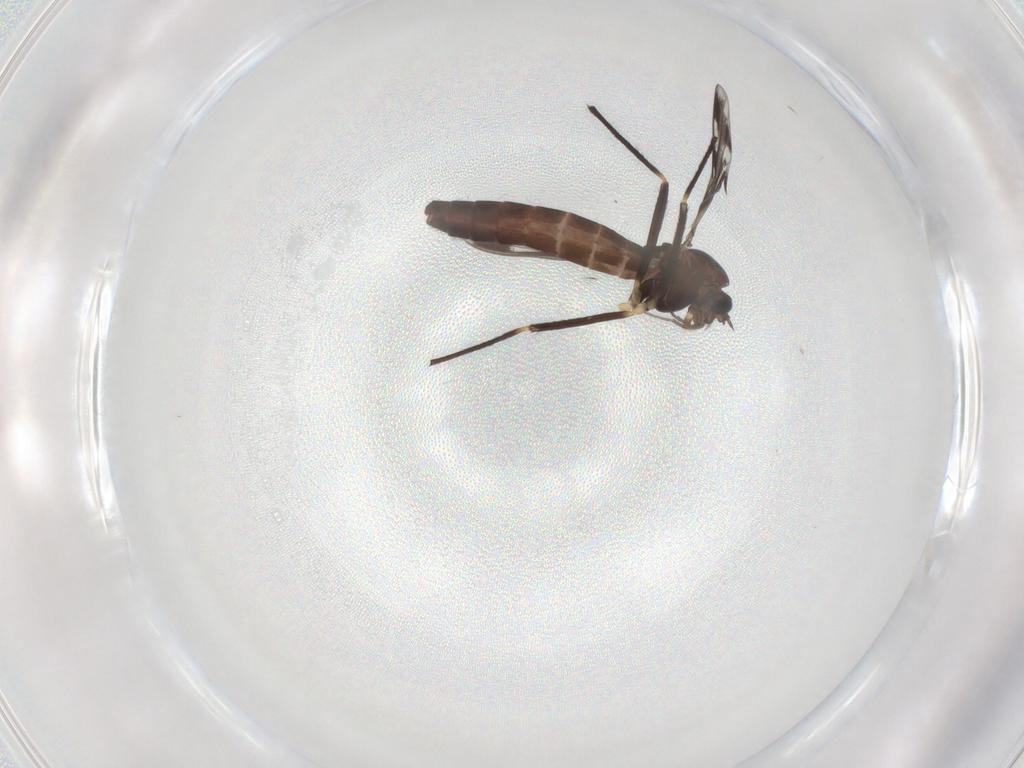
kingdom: Animalia
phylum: Arthropoda
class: Insecta
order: Diptera
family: Chironomidae
